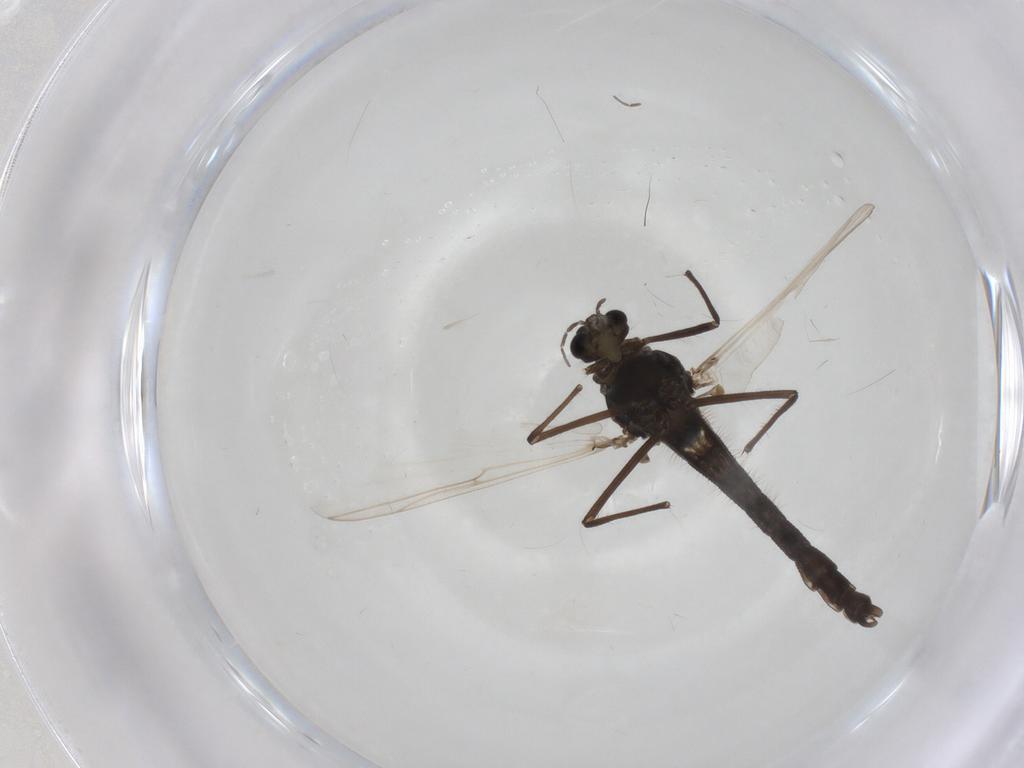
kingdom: Animalia
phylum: Arthropoda
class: Insecta
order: Diptera
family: Chironomidae
